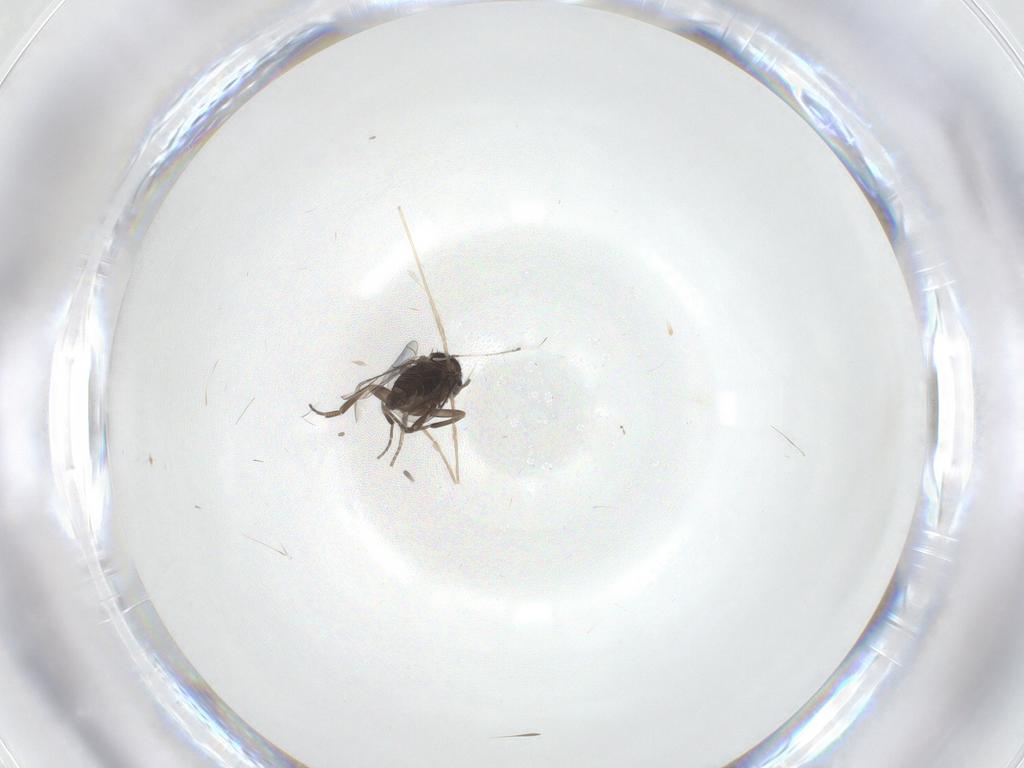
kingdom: Animalia
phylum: Arthropoda
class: Insecta
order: Diptera
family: Chironomidae
